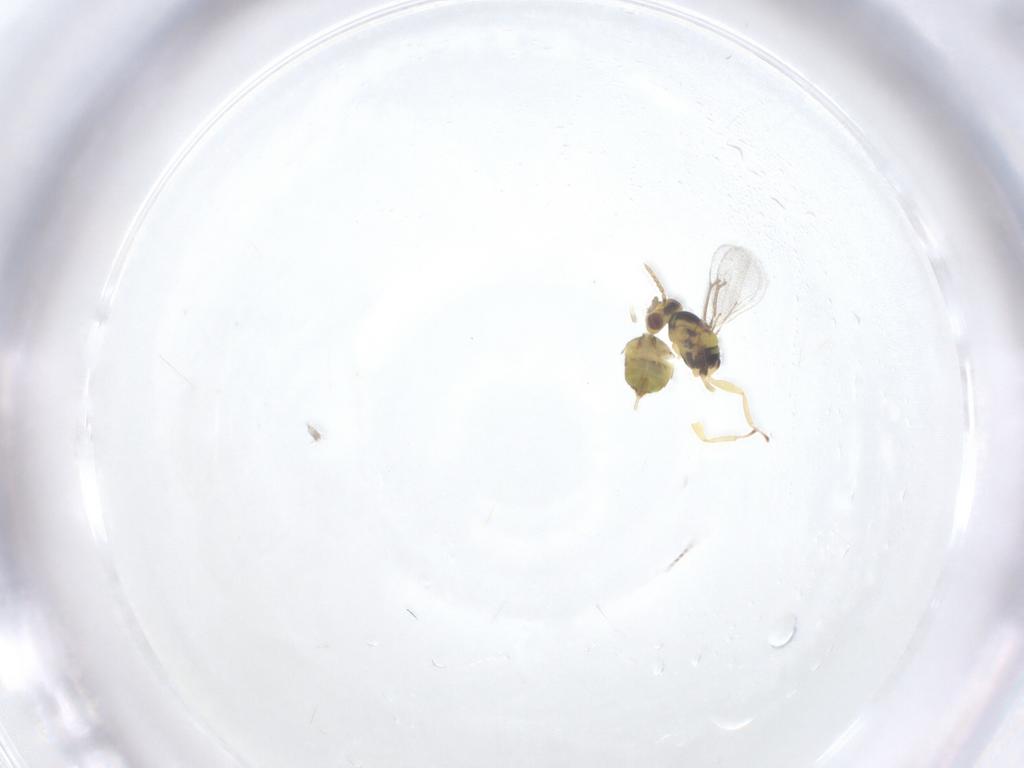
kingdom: Animalia
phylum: Arthropoda
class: Insecta
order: Hymenoptera
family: Eulophidae
